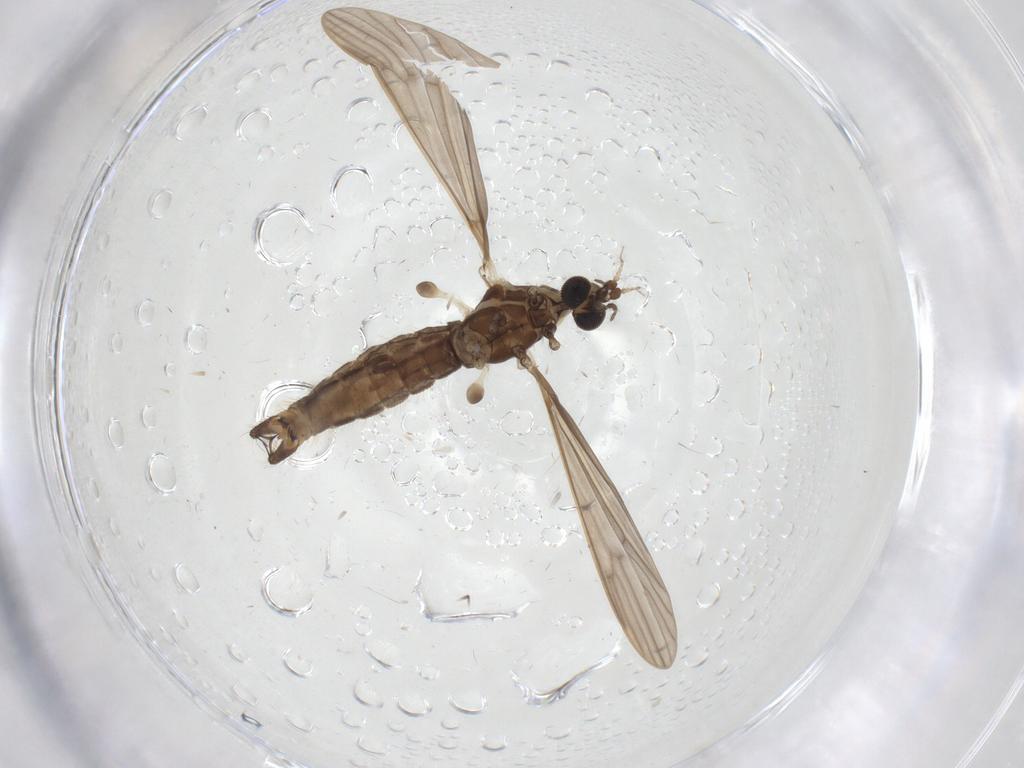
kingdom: Animalia
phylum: Arthropoda
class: Insecta
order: Diptera
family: Limoniidae
